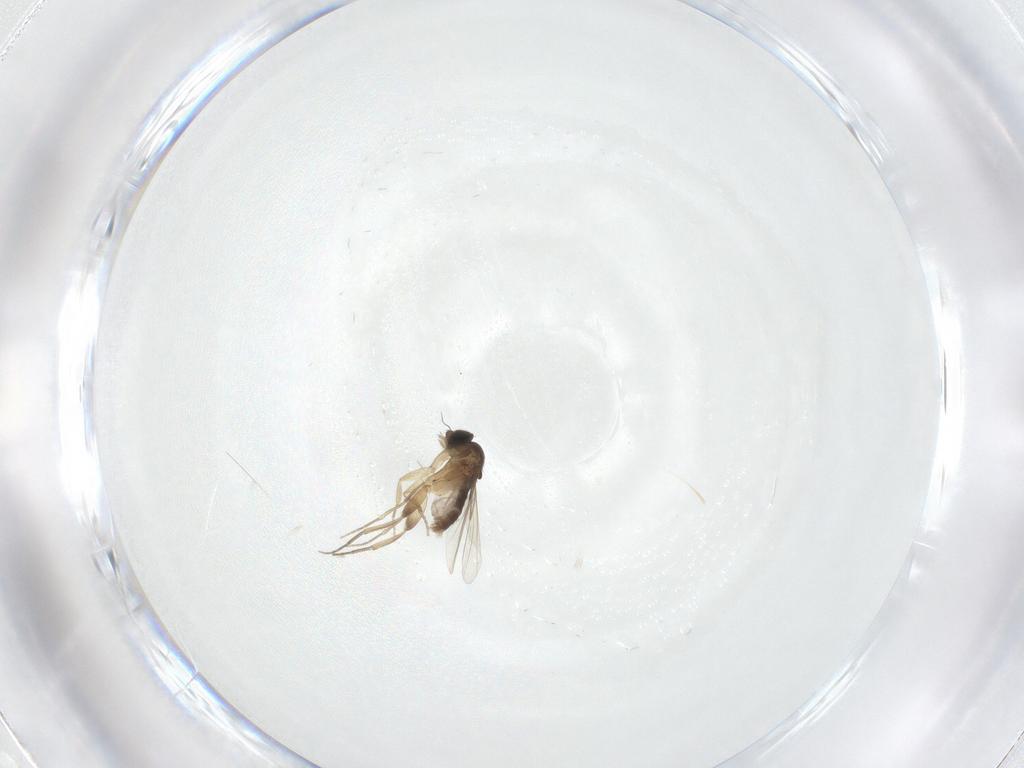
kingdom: Animalia
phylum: Arthropoda
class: Insecta
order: Diptera
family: Phoridae
